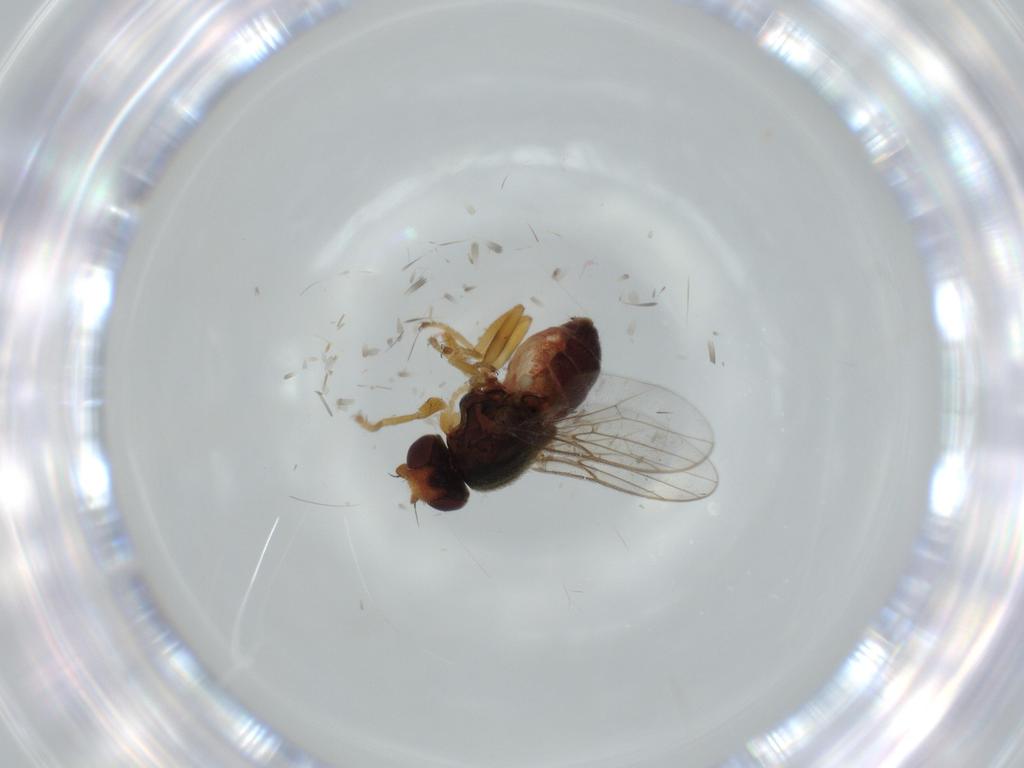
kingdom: Animalia
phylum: Arthropoda
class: Insecta
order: Diptera
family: Chloropidae
